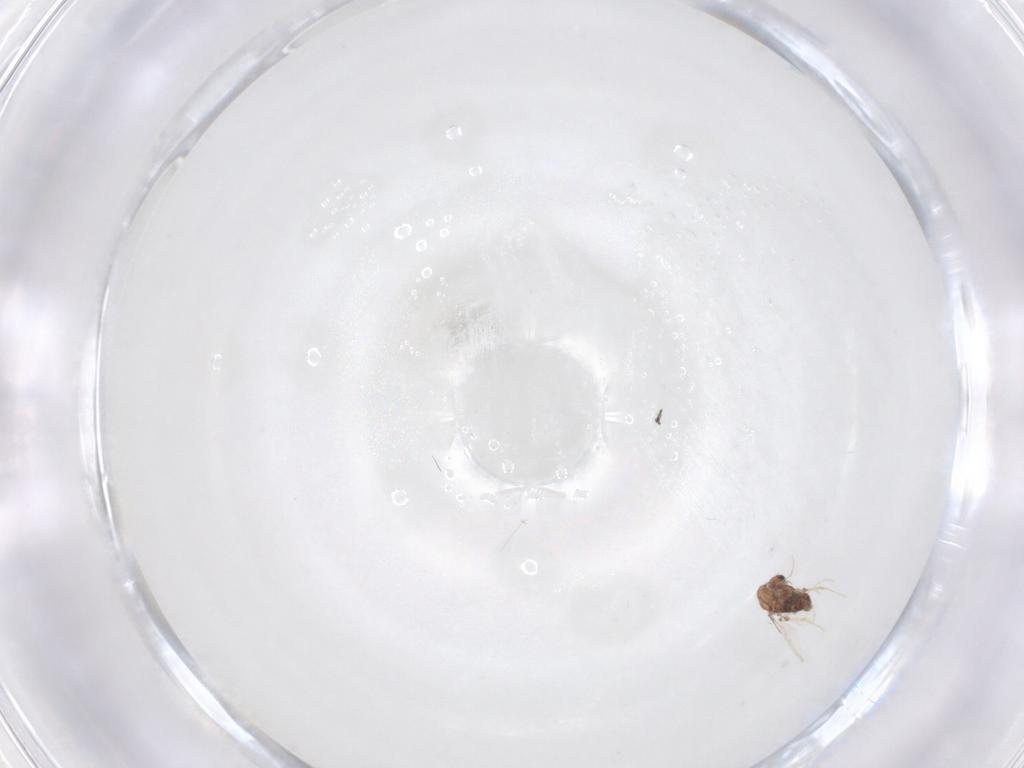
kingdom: Animalia
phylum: Arthropoda
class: Insecta
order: Diptera
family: Chironomidae
